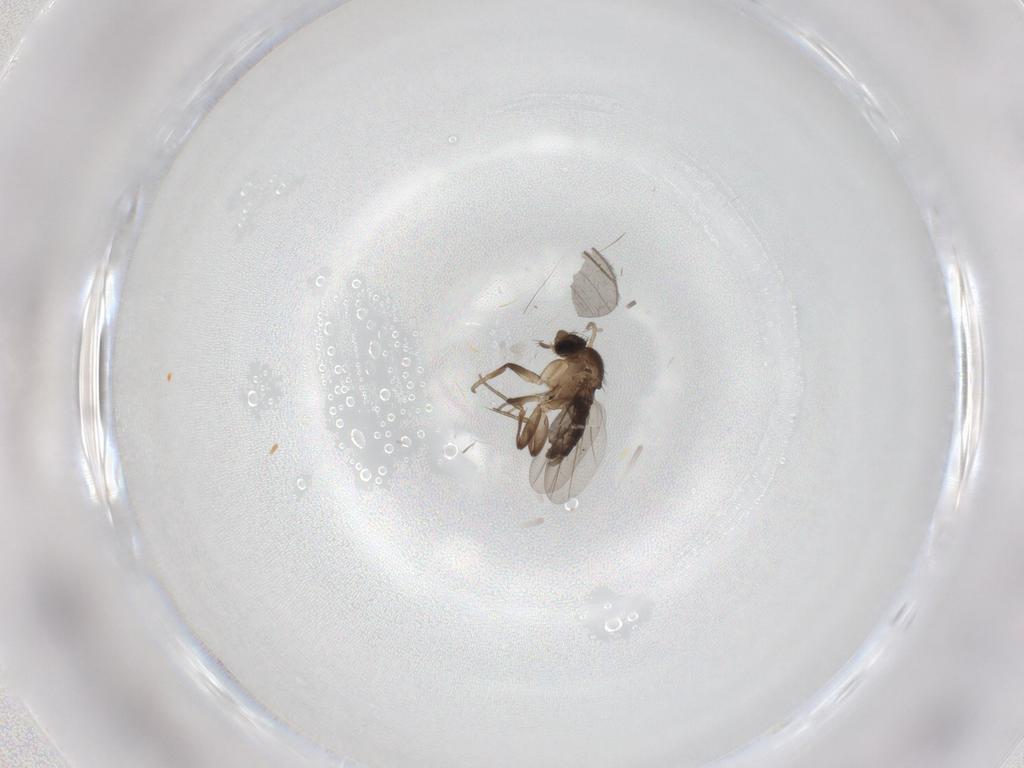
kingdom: Animalia
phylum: Arthropoda
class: Insecta
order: Diptera
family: Phoridae
